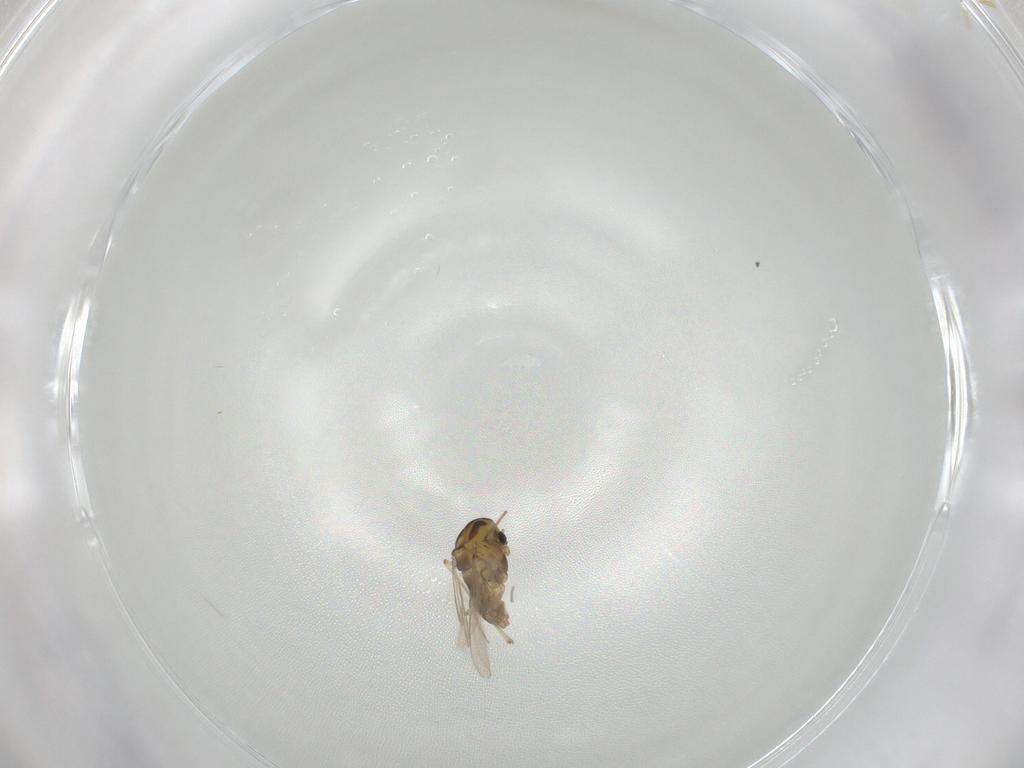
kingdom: Animalia
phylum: Arthropoda
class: Insecta
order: Diptera
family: Chironomidae
